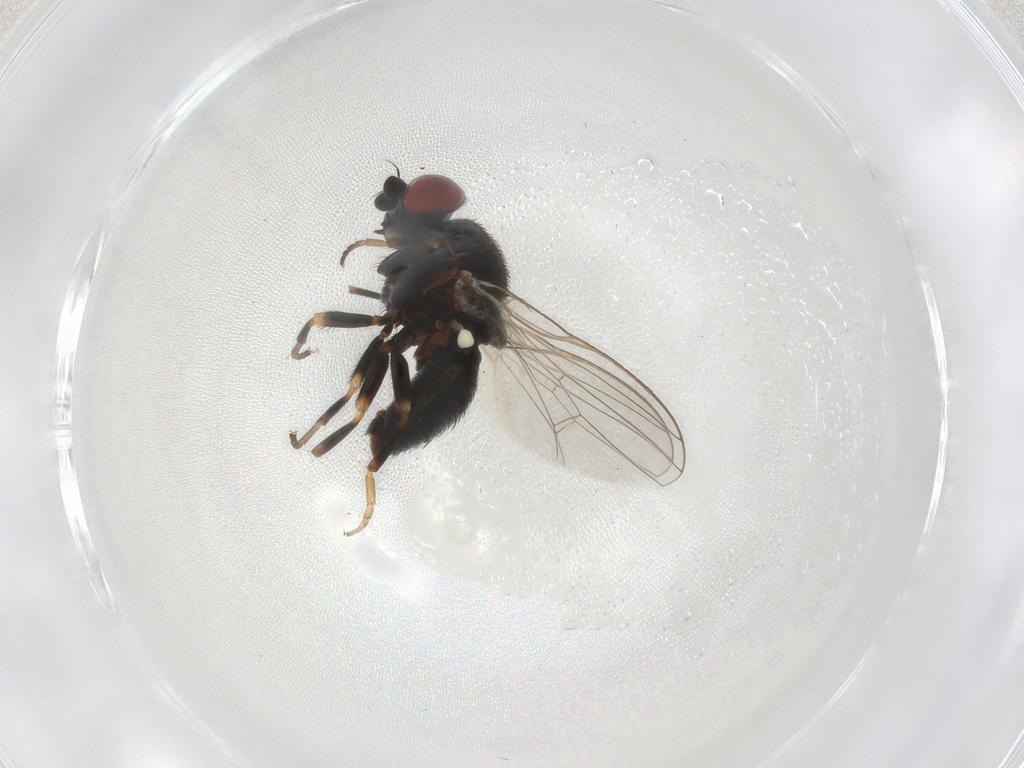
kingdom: Animalia
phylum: Arthropoda
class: Insecta
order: Diptera
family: Chamaemyiidae
